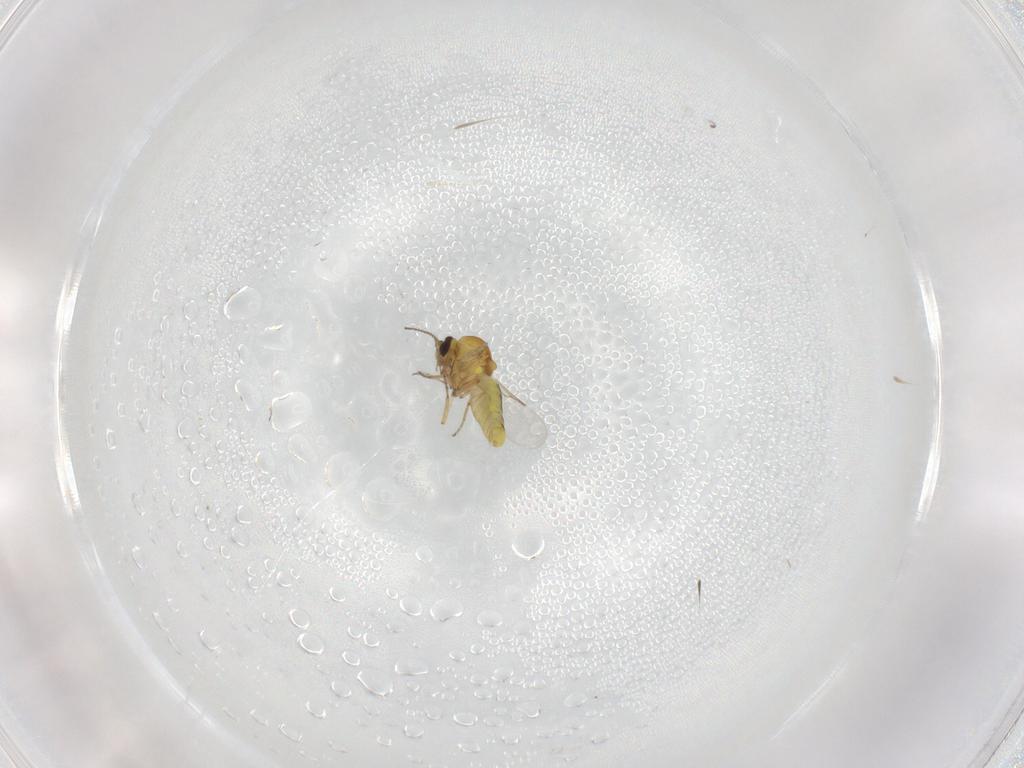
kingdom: Animalia
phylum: Arthropoda
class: Insecta
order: Diptera
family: Ceratopogonidae
